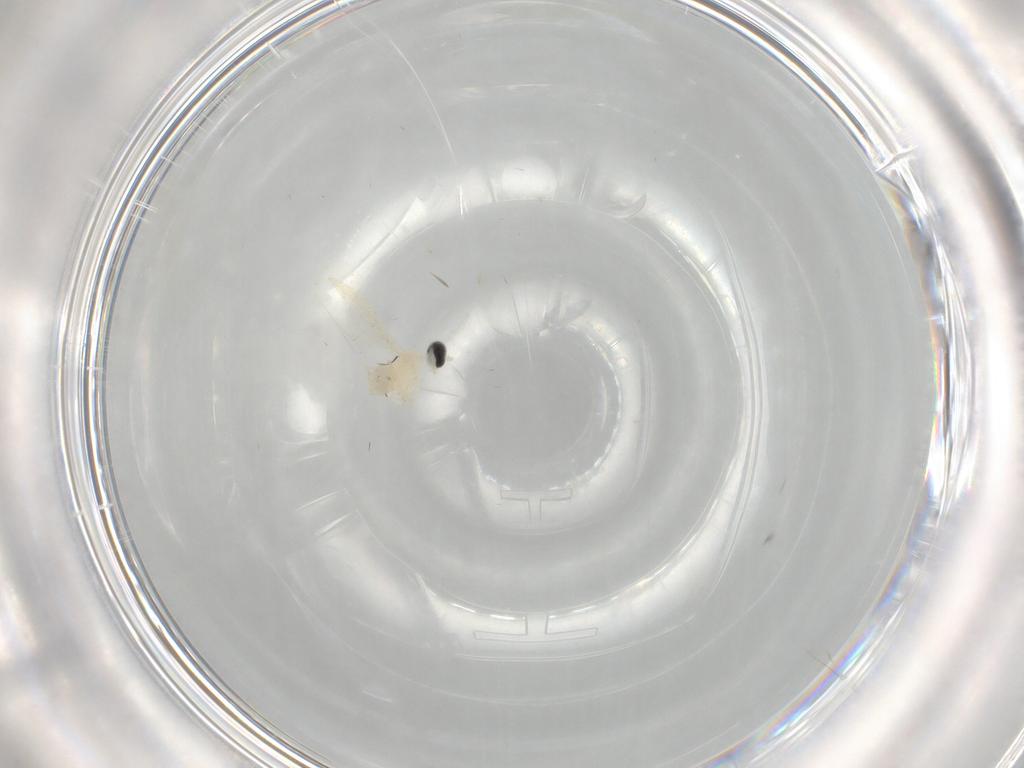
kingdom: Animalia
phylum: Arthropoda
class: Insecta
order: Diptera
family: Cecidomyiidae
